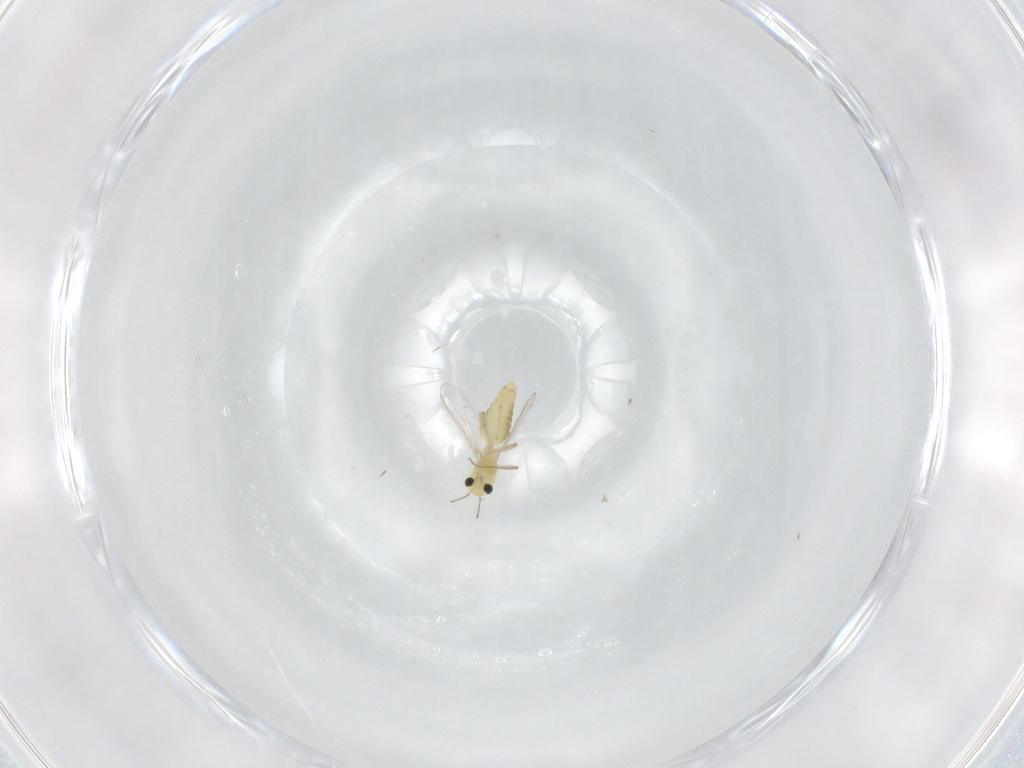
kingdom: Animalia
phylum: Arthropoda
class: Insecta
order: Diptera
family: Chironomidae
